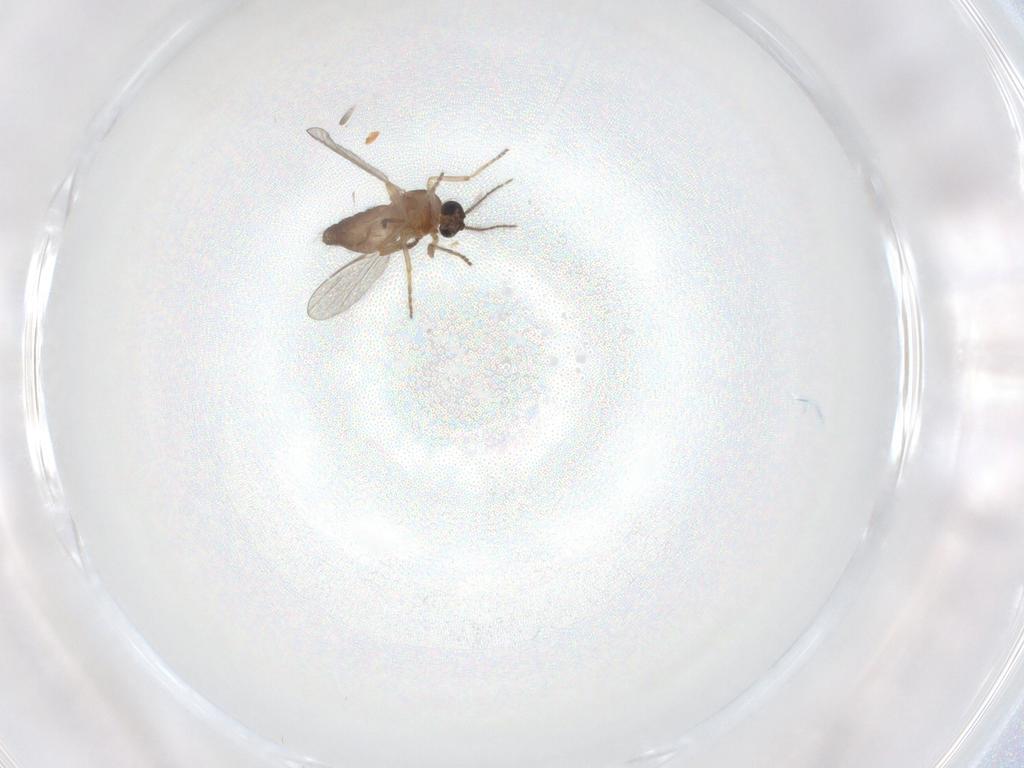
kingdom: Animalia
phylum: Arthropoda
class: Insecta
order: Diptera
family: Ceratopogonidae
